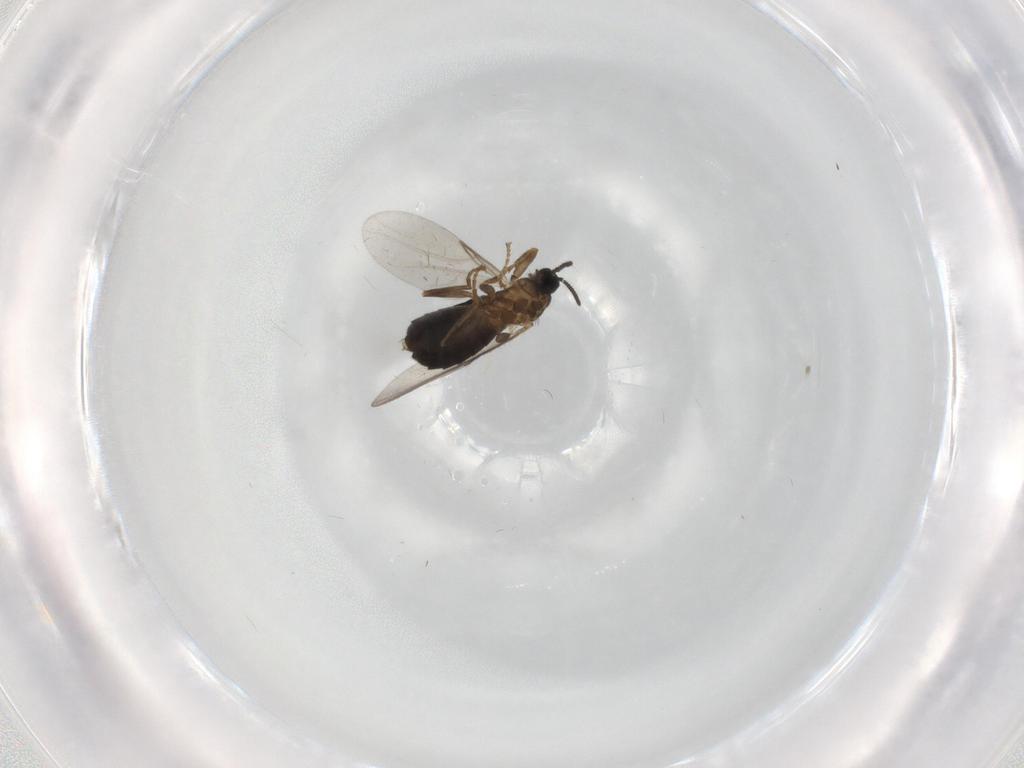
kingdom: Animalia
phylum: Arthropoda
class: Insecta
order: Diptera
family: Scatopsidae
